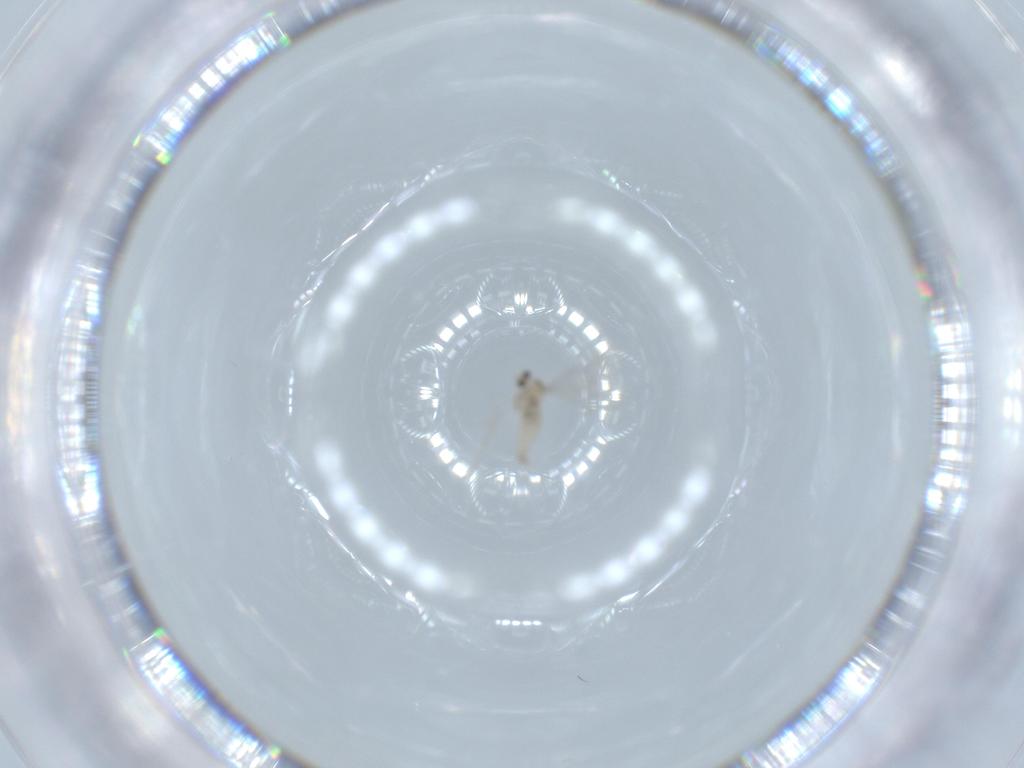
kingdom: Animalia
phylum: Arthropoda
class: Insecta
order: Diptera
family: Cecidomyiidae
